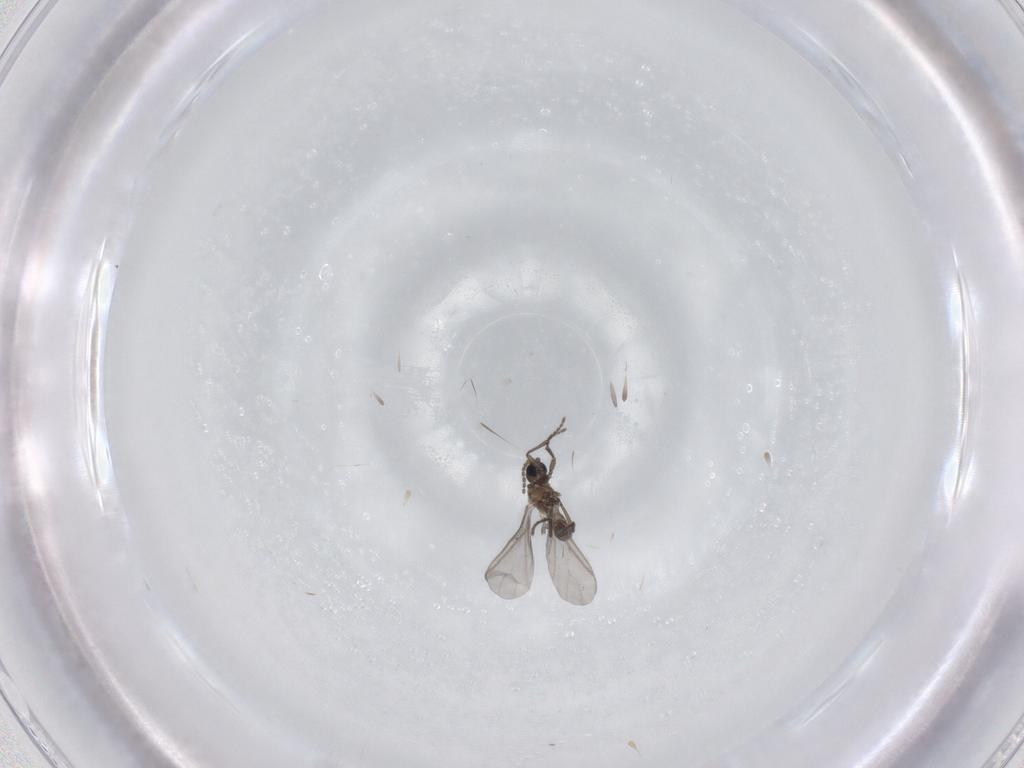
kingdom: Animalia
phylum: Arthropoda
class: Insecta
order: Diptera
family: Sciaridae
